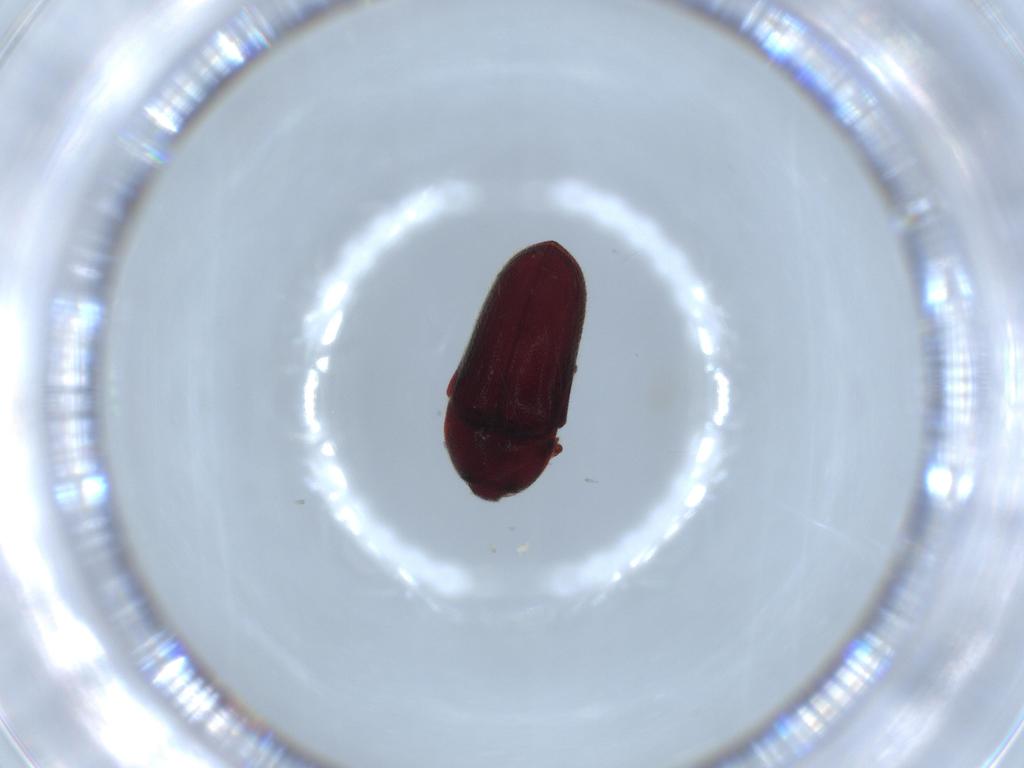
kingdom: Animalia
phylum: Arthropoda
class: Insecta
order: Coleoptera
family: Throscidae
